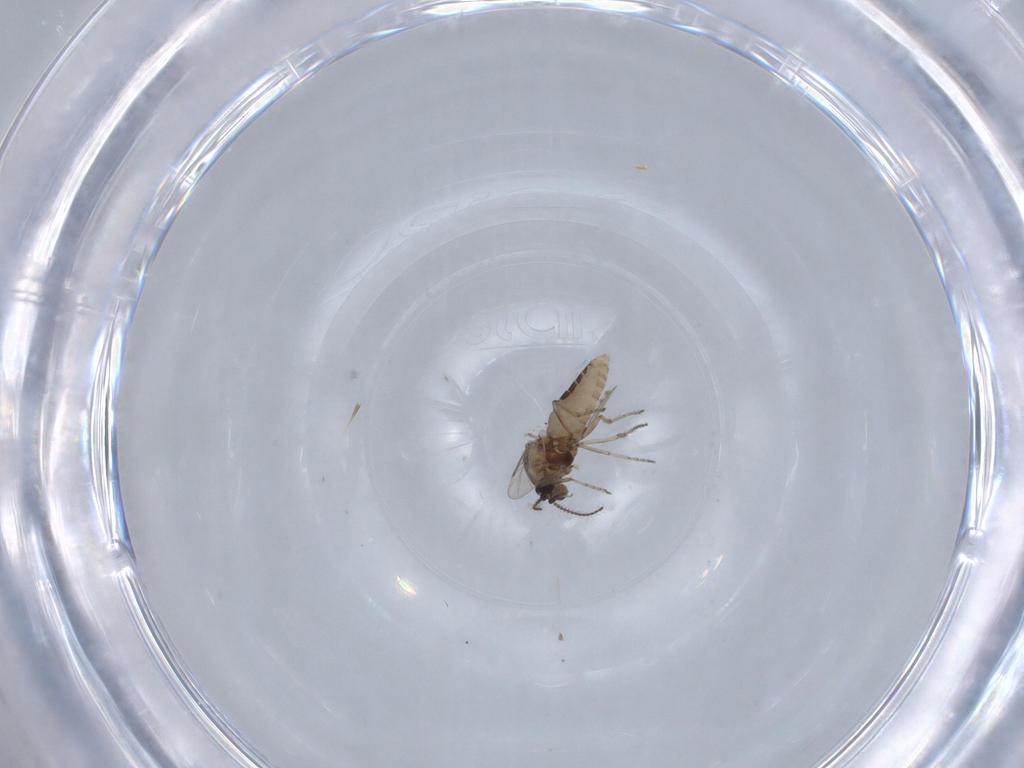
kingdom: Animalia
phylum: Arthropoda
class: Insecta
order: Diptera
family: Ceratopogonidae
